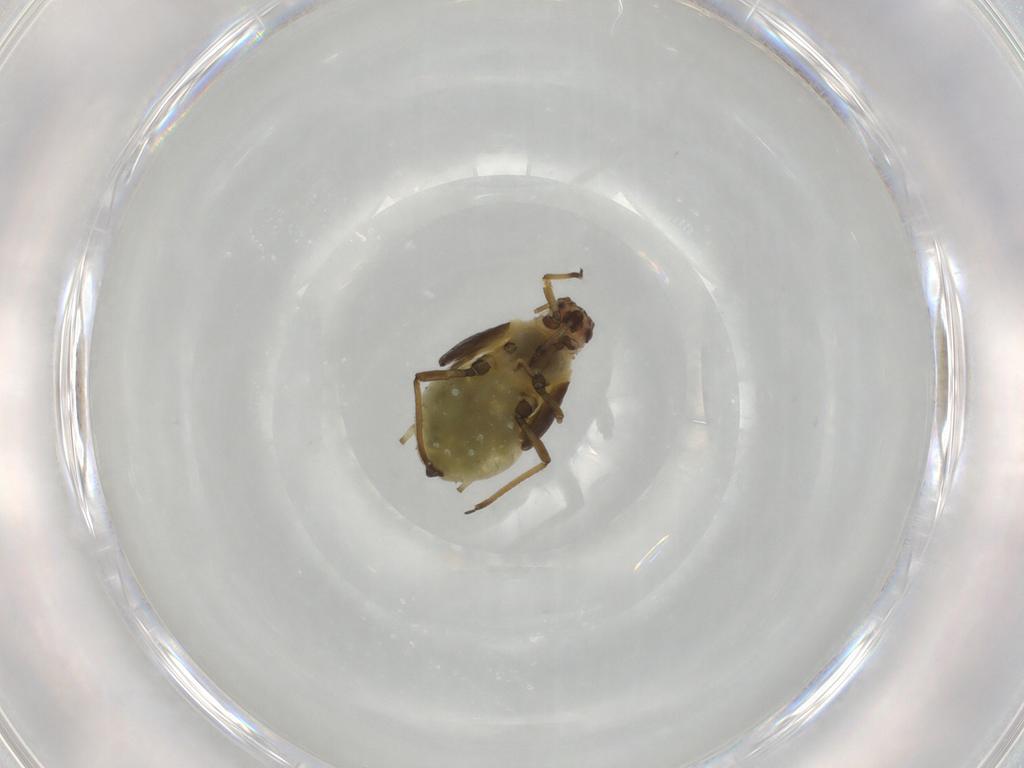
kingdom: Animalia
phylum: Arthropoda
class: Insecta
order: Hemiptera
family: Aphididae
